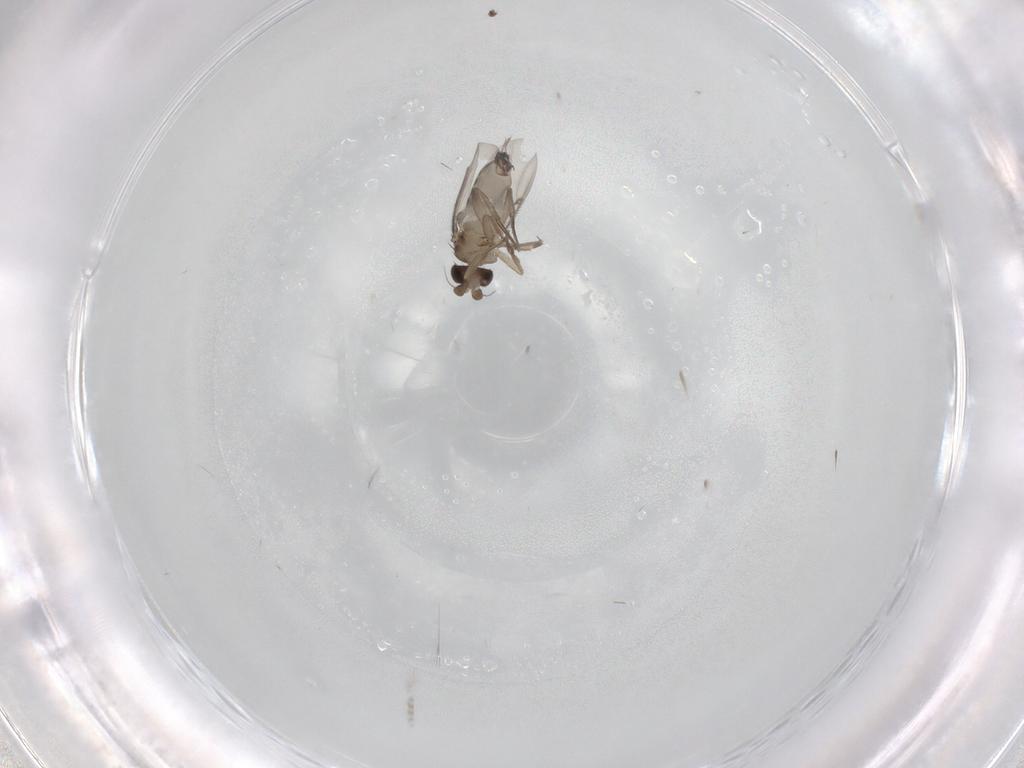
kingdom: Animalia
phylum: Arthropoda
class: Insecta
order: Diptera
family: Phoridae
